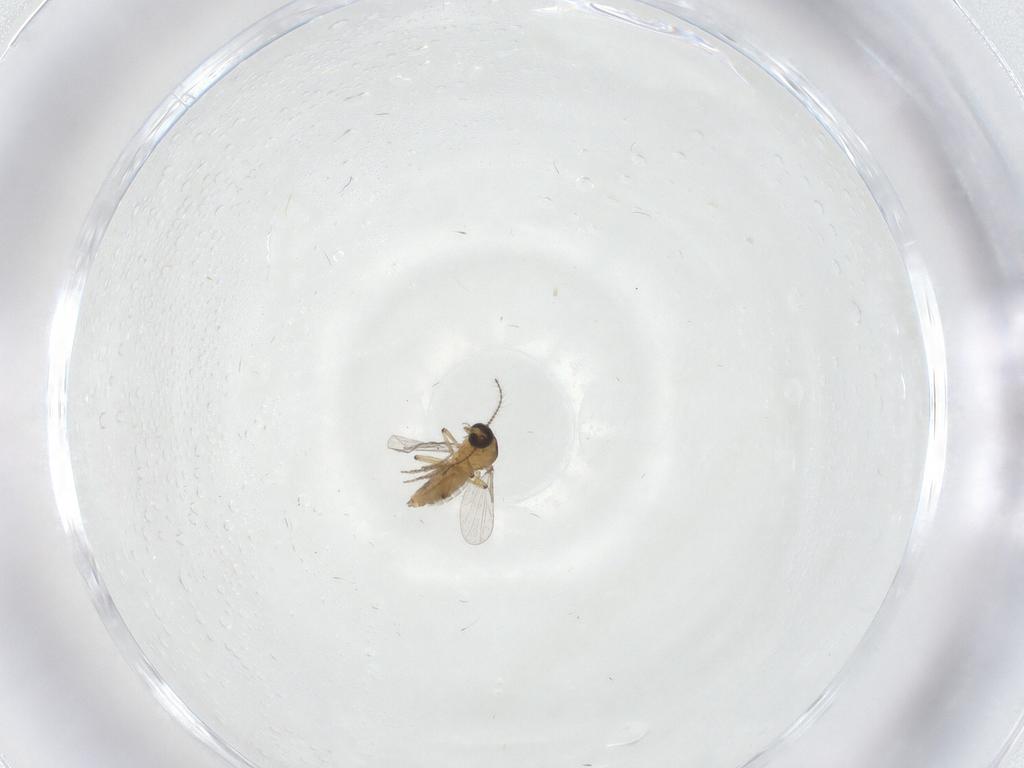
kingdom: Animalia
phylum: Arthropoda
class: Insecta
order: Diptera
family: Ceratopogonidae
